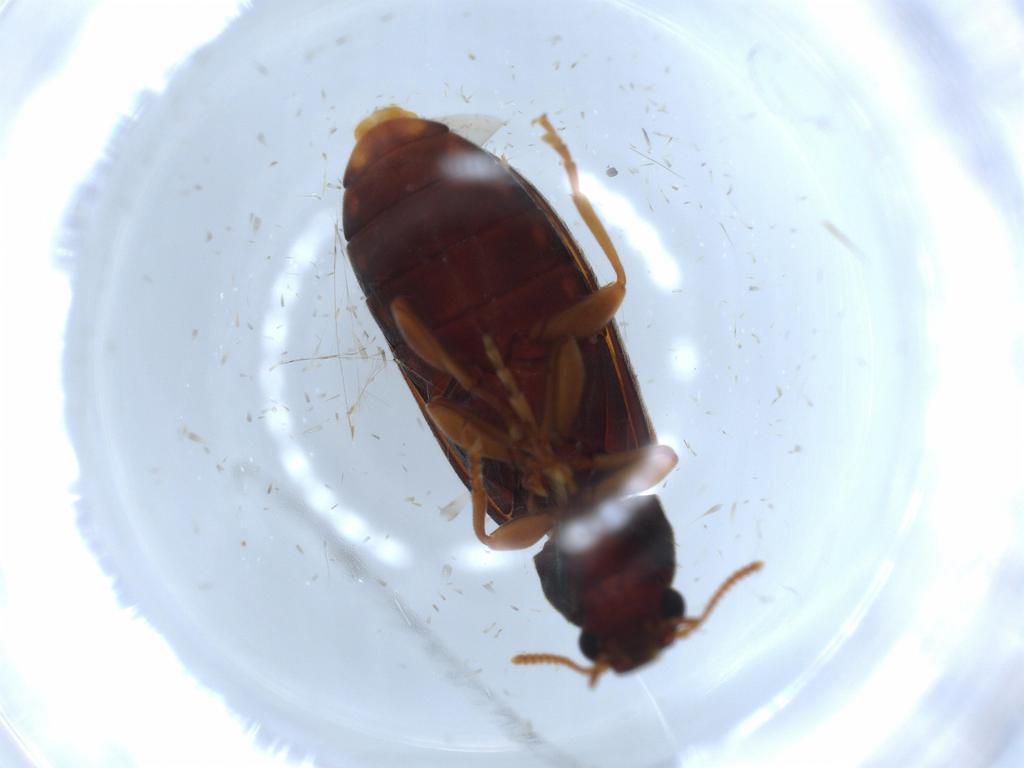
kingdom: Animalia
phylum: Arthropoda
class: Insecta
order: Coleoptera
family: Mycteridae
